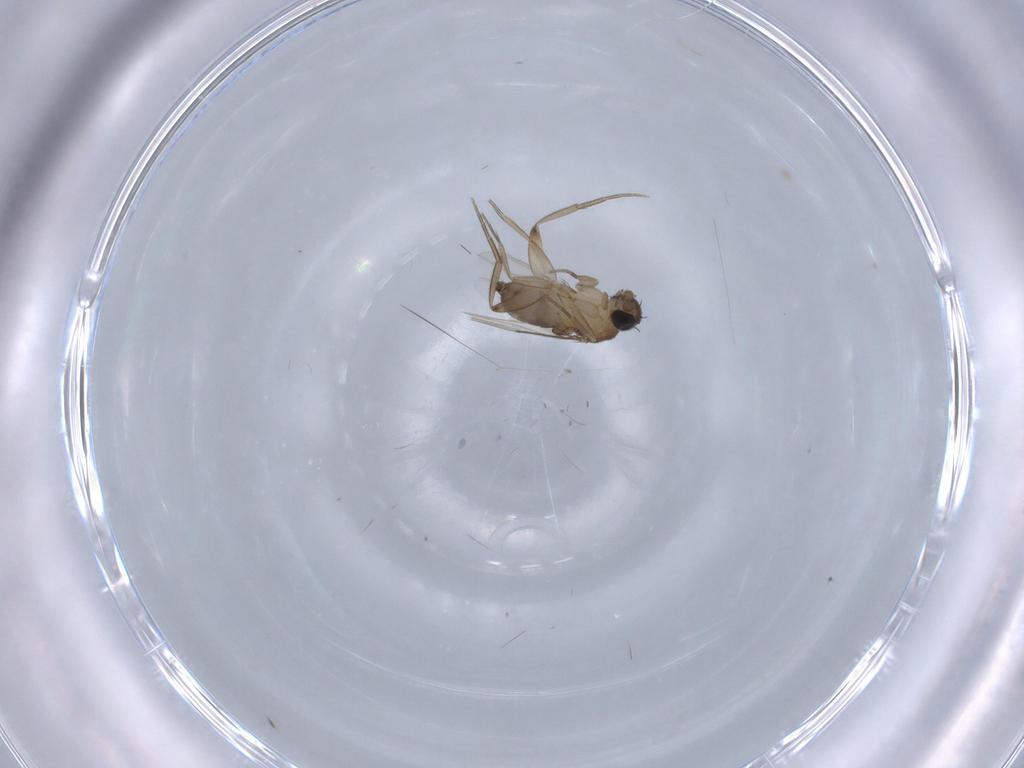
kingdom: Animalia
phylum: Arthropoda
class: Insecta
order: Diptera
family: Phoridae
